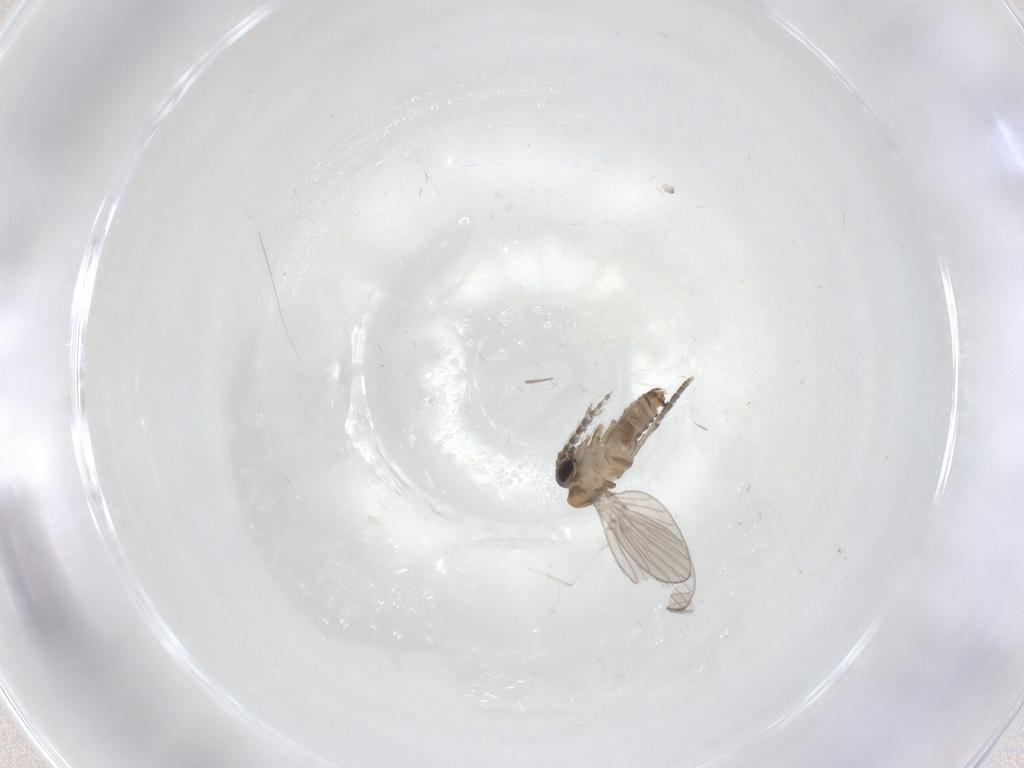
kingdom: Animalia
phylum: Arthropoda
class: Insecta
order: Diptera
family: Psychodidae
